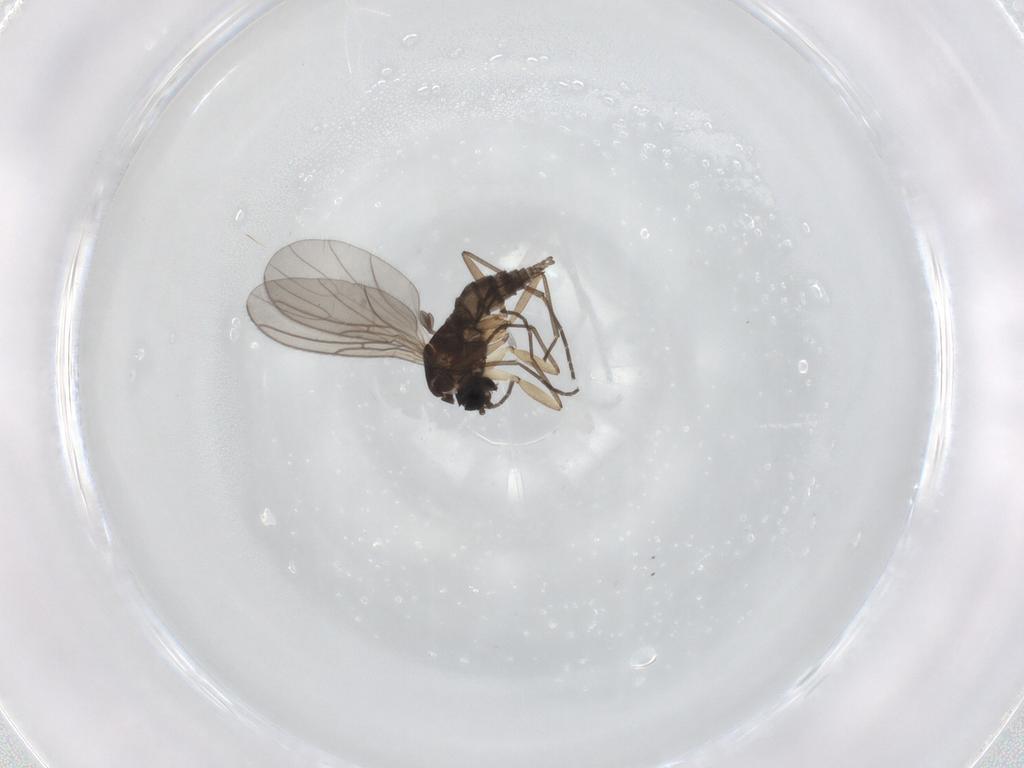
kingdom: Animalia
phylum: Arthropoda
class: Insecta
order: Diptera
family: Sciaridae
